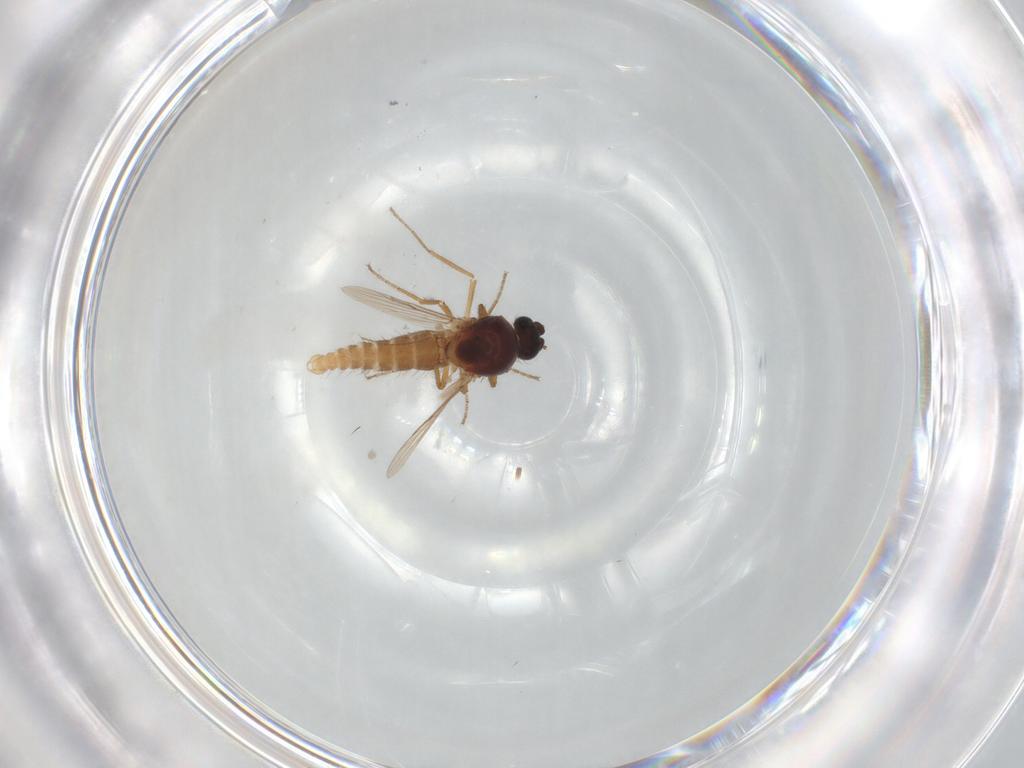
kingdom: Animalia
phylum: Arthropoda
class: Insecta
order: Diptera
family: Ceratopogonidae
